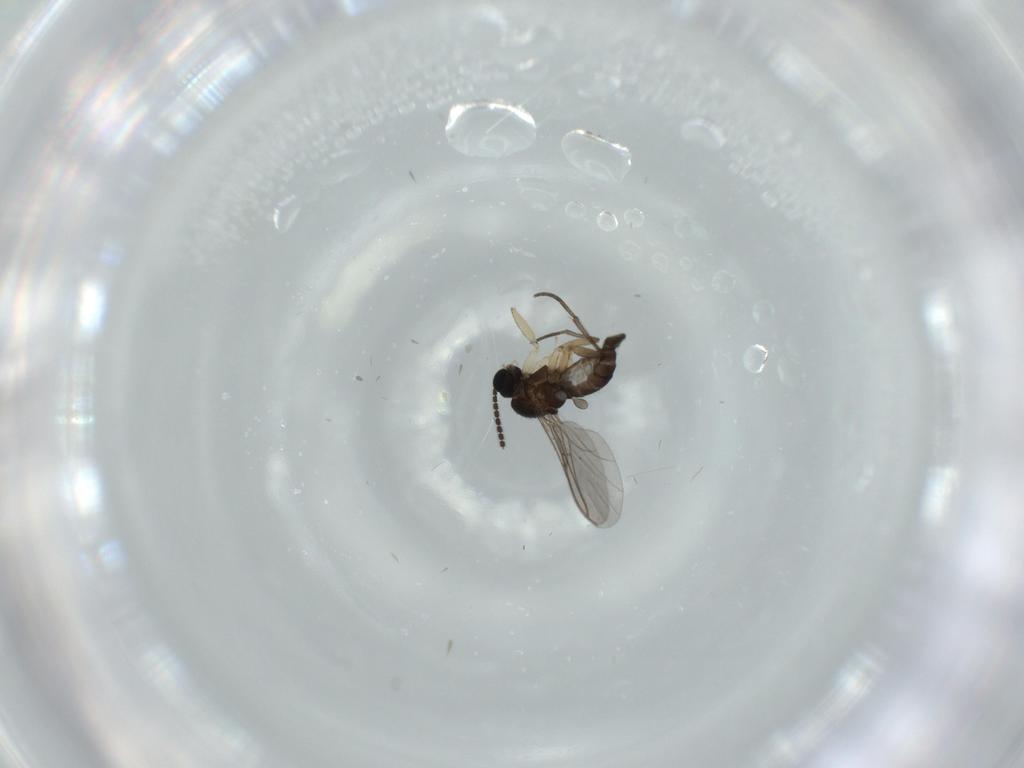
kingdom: Animalia
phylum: Arthropoda
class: Insecta
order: Diptera
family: Sciaridae
